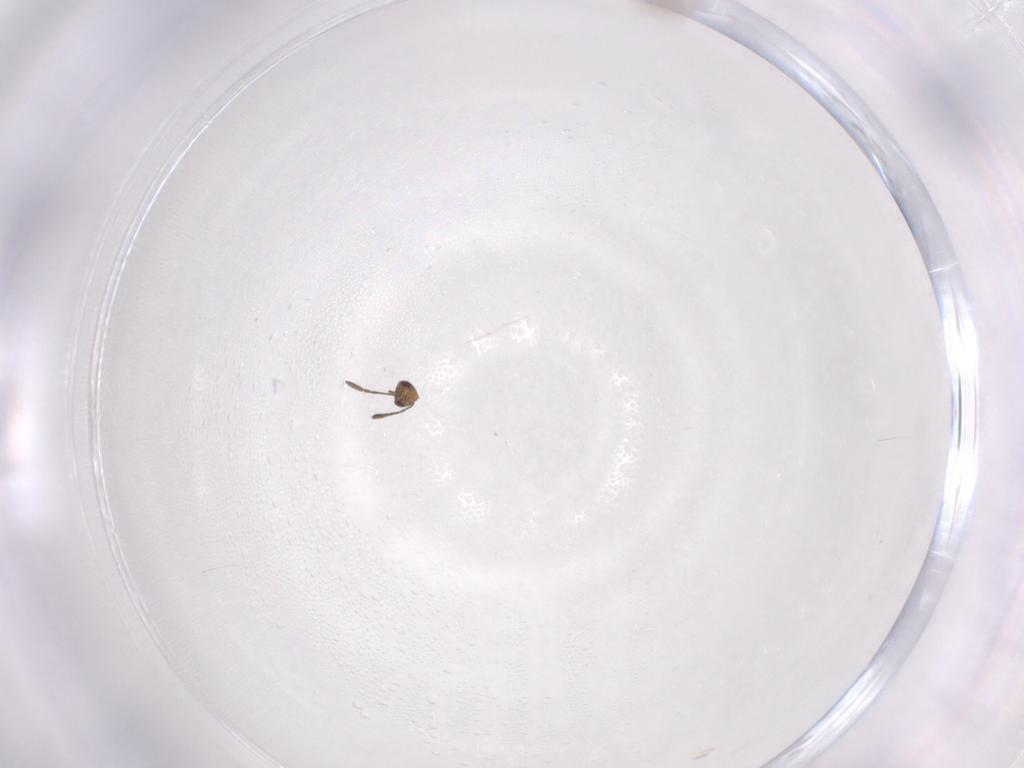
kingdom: Animalia
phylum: Arthropoda
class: Insecta
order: Hymenoptera
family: Mymaridae
